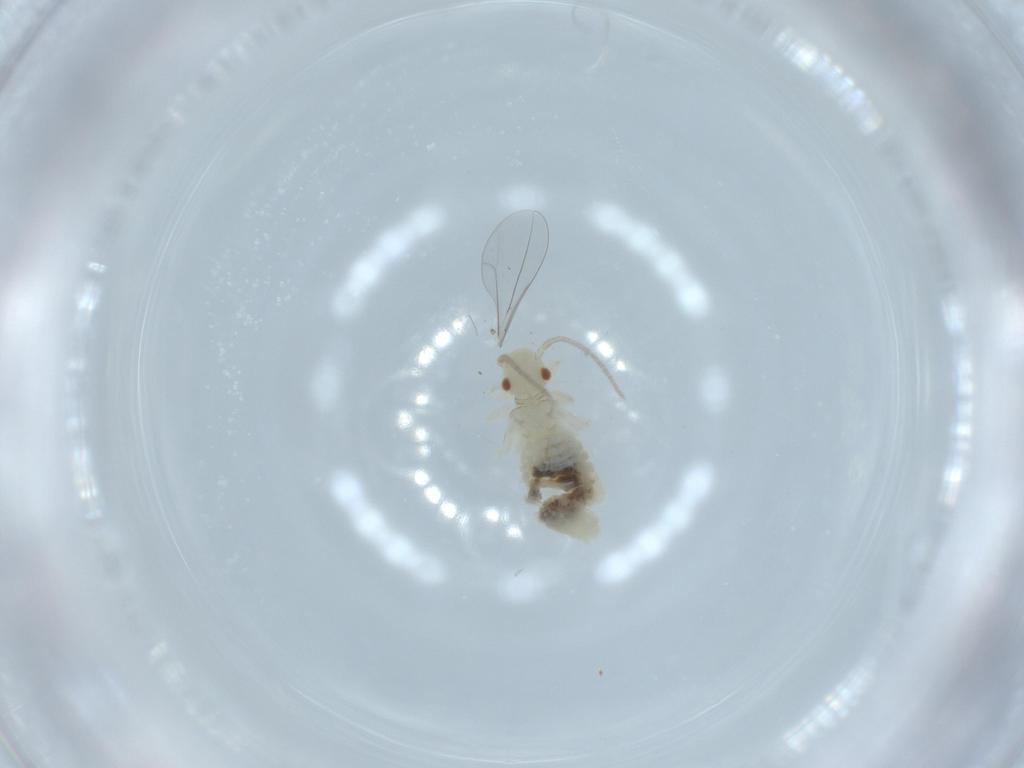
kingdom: Animalia
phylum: Arthropoda
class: Insecta
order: Psocodea
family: Caeciliusidae
